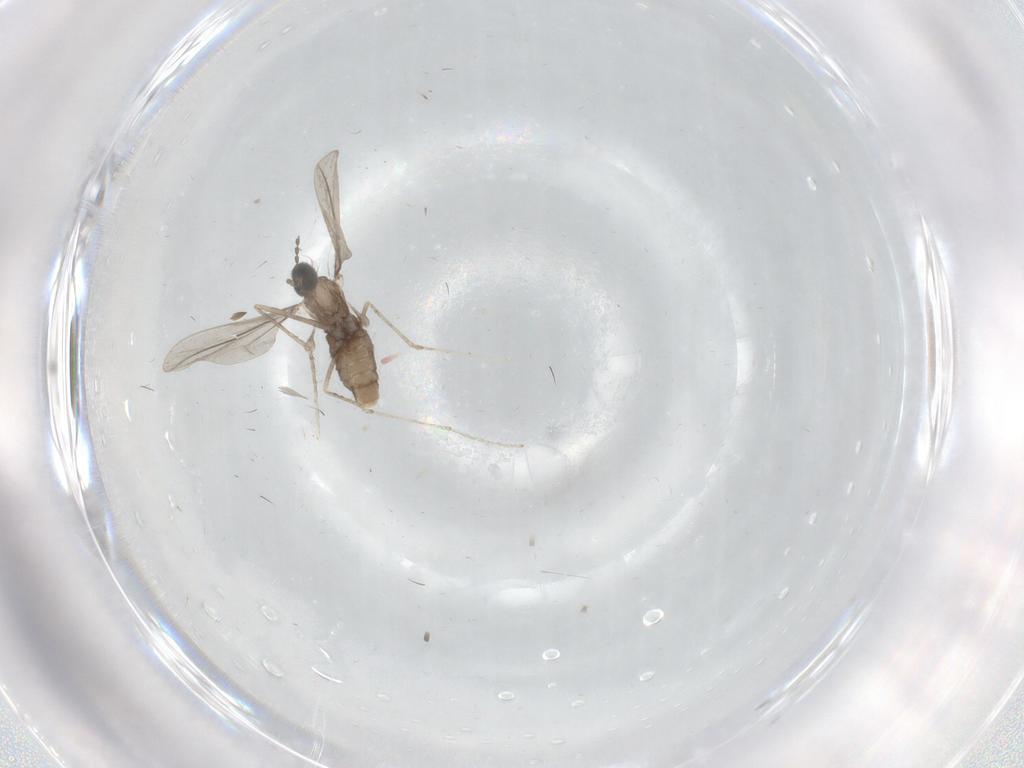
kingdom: Animalia
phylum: Arthropoda
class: Insecta
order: Diptera
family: Cecidomyiidae
